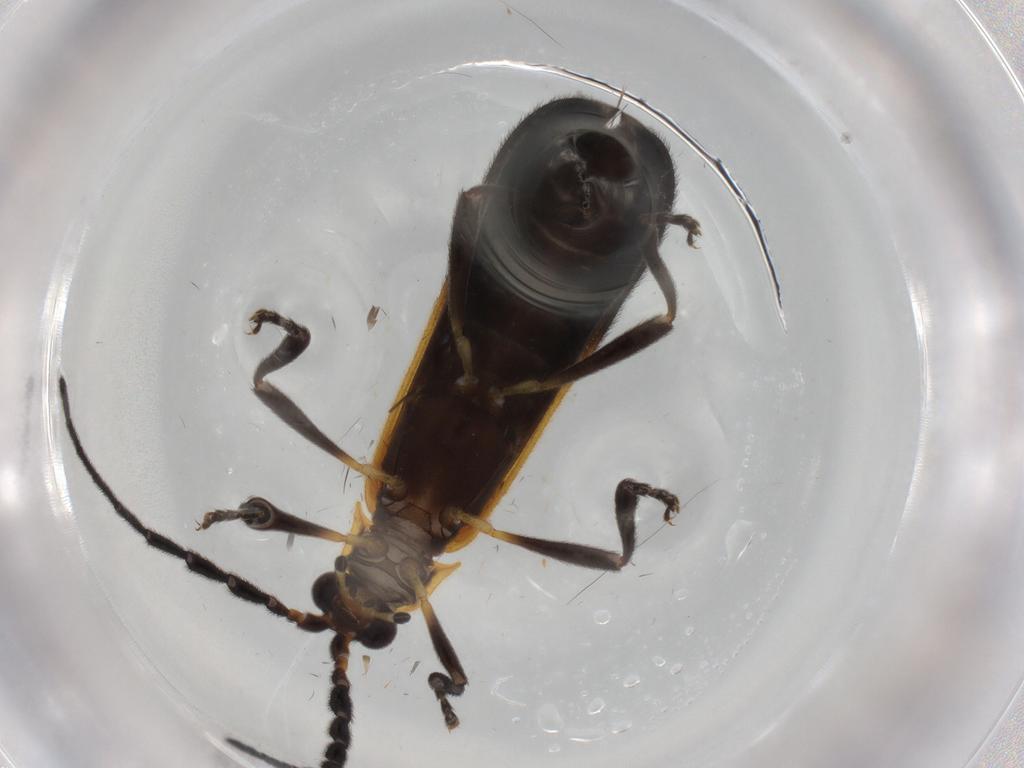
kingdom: Animalia
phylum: Arthropoda
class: Insecta
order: Coleoptera
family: Lycidae
